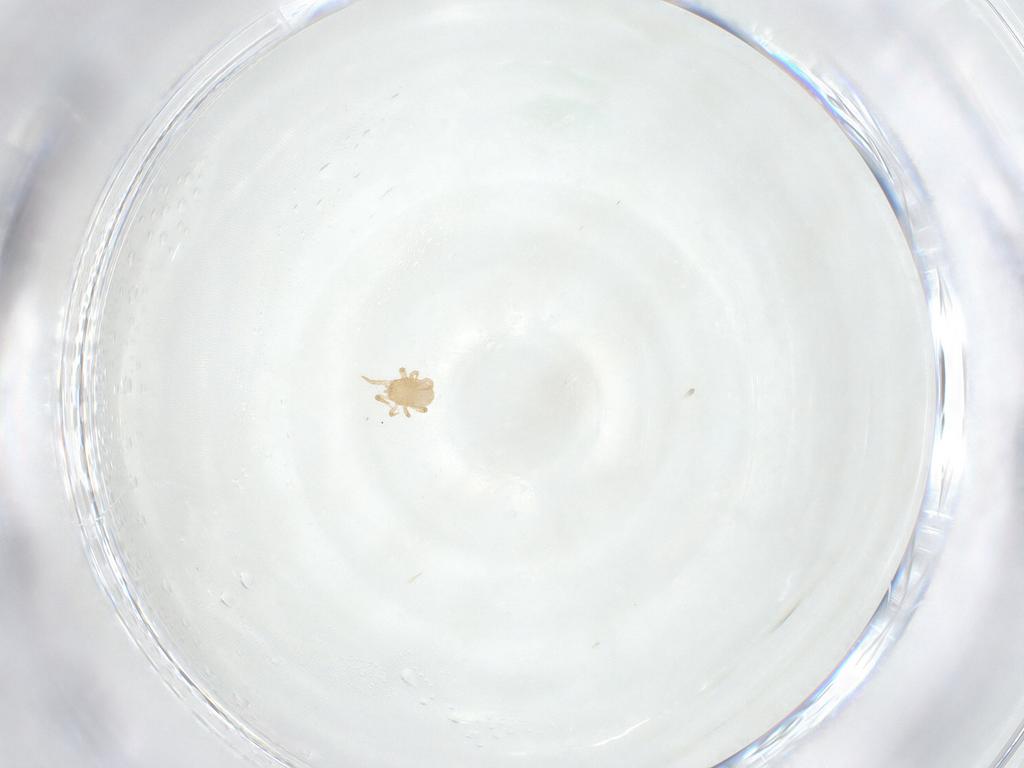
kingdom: Animalia
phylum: Arthropoda
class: Arachnida
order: Mesostigmata
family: Ameroseiidae
